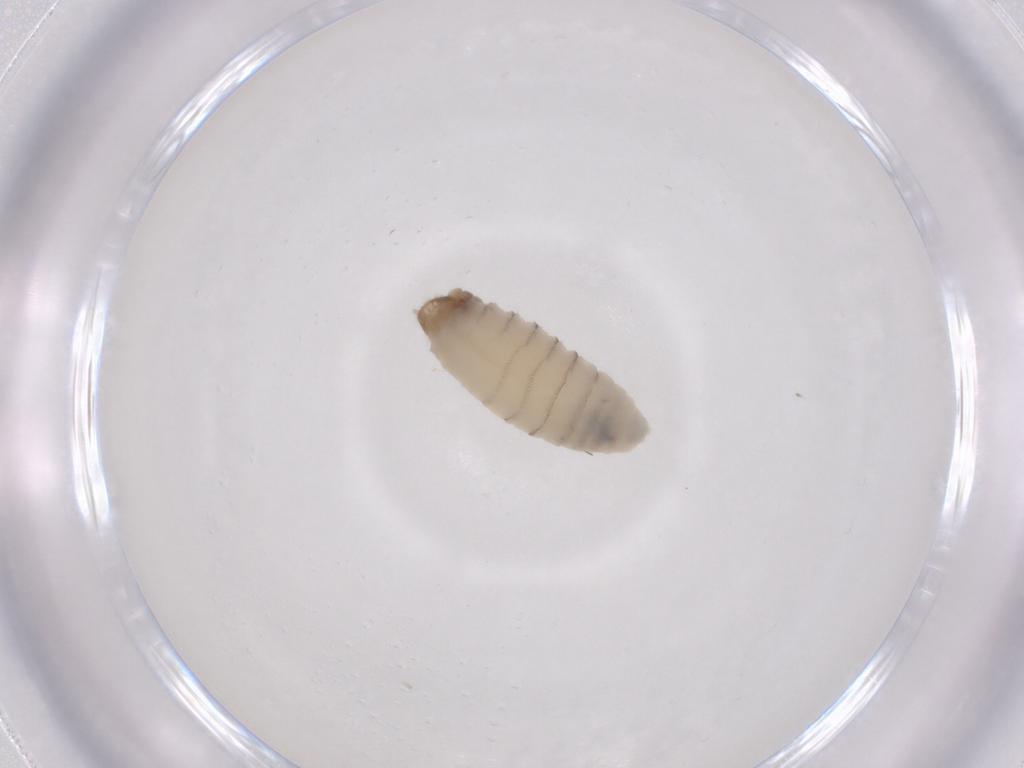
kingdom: Animalia
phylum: Arthropoda
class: Insecta
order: Diptera
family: Sarcophagidae
